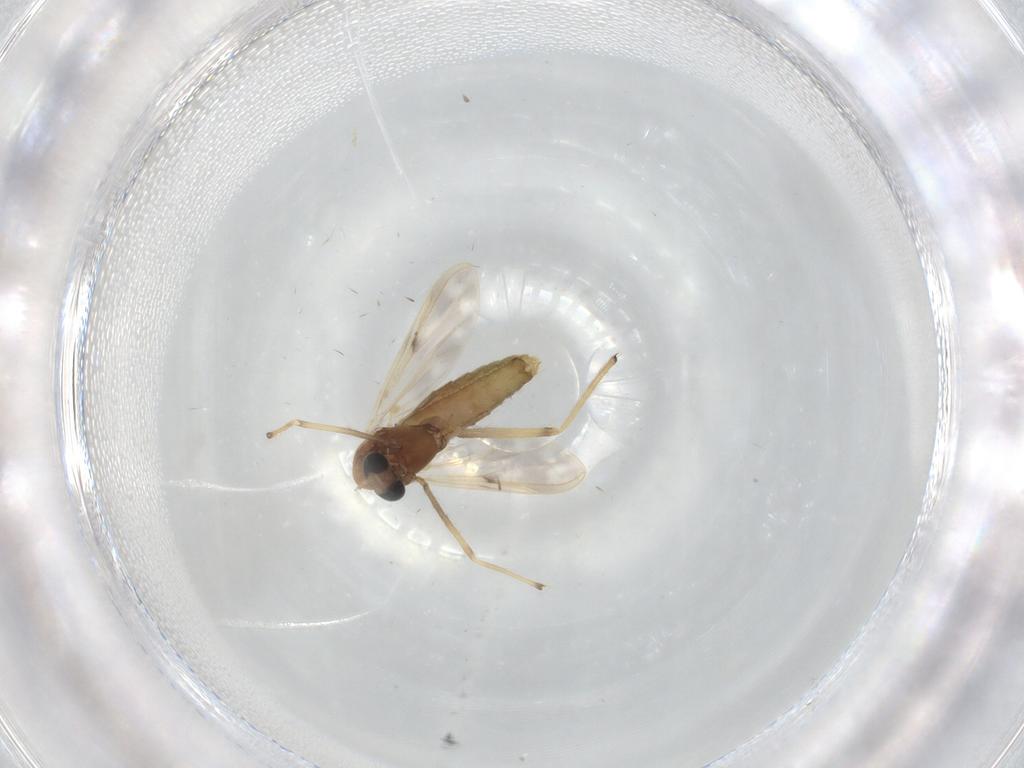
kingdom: Animalia
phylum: Arthropoda
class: Insecta
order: Diptera
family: Chironomidae
